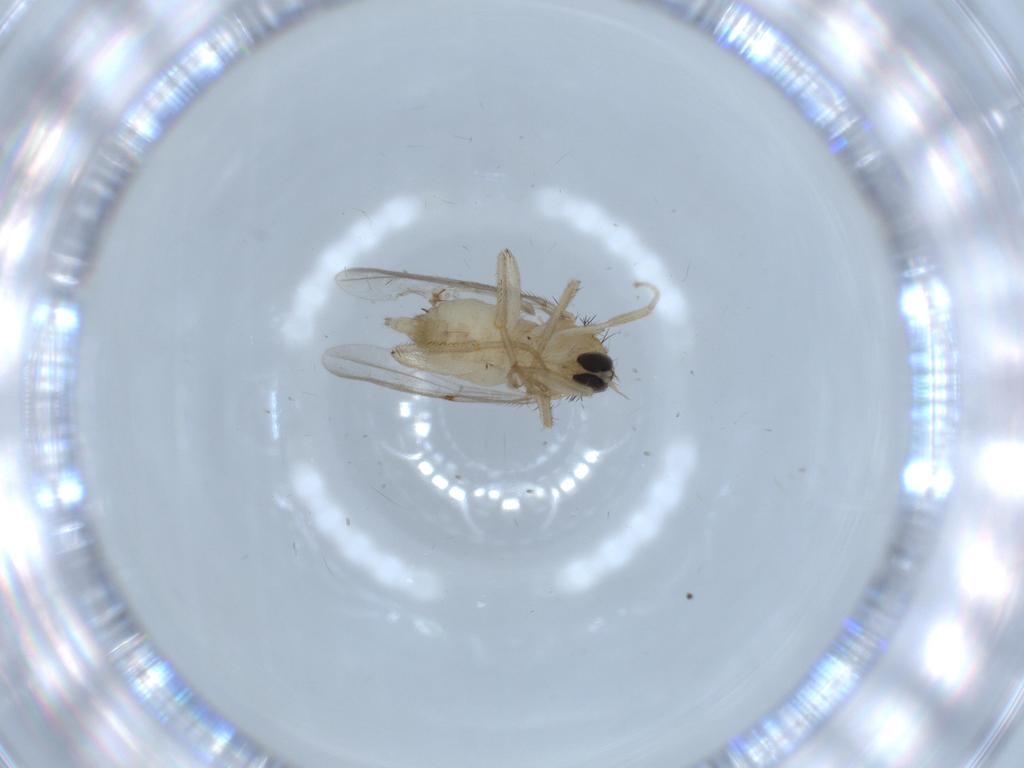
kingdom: Animalia
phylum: Arthropoda
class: Insecta
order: Diptera
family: Hybotidae
